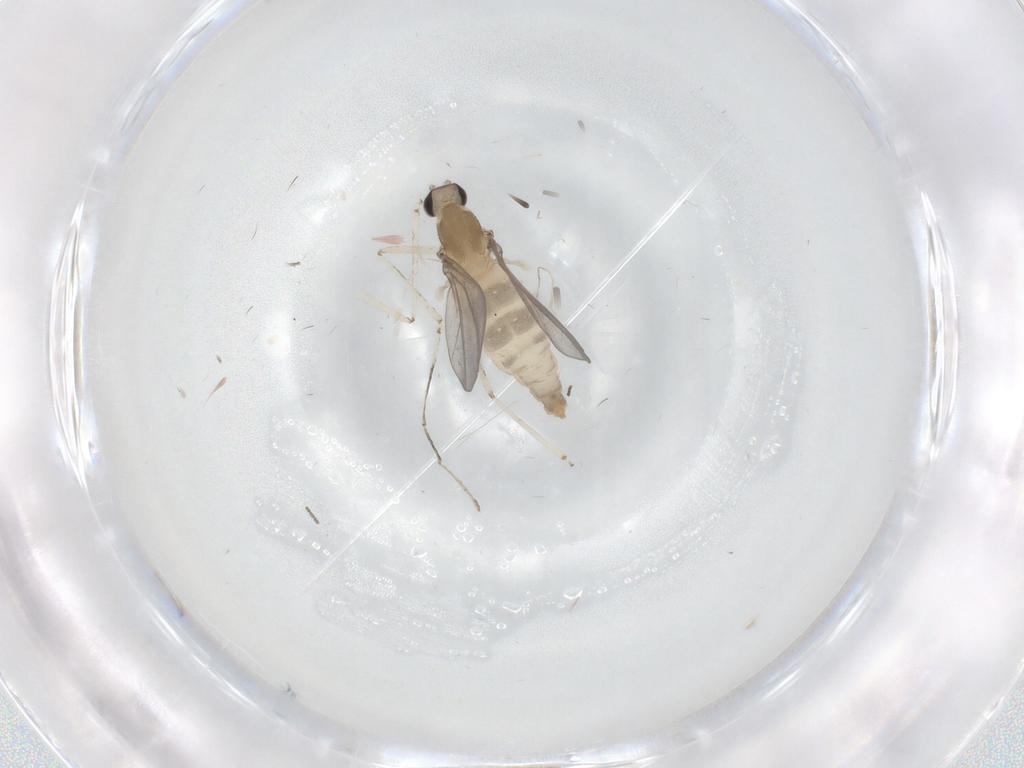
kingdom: Animalia
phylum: Arthropoda
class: Insecta
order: Diptera
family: Cecidomyiidae
